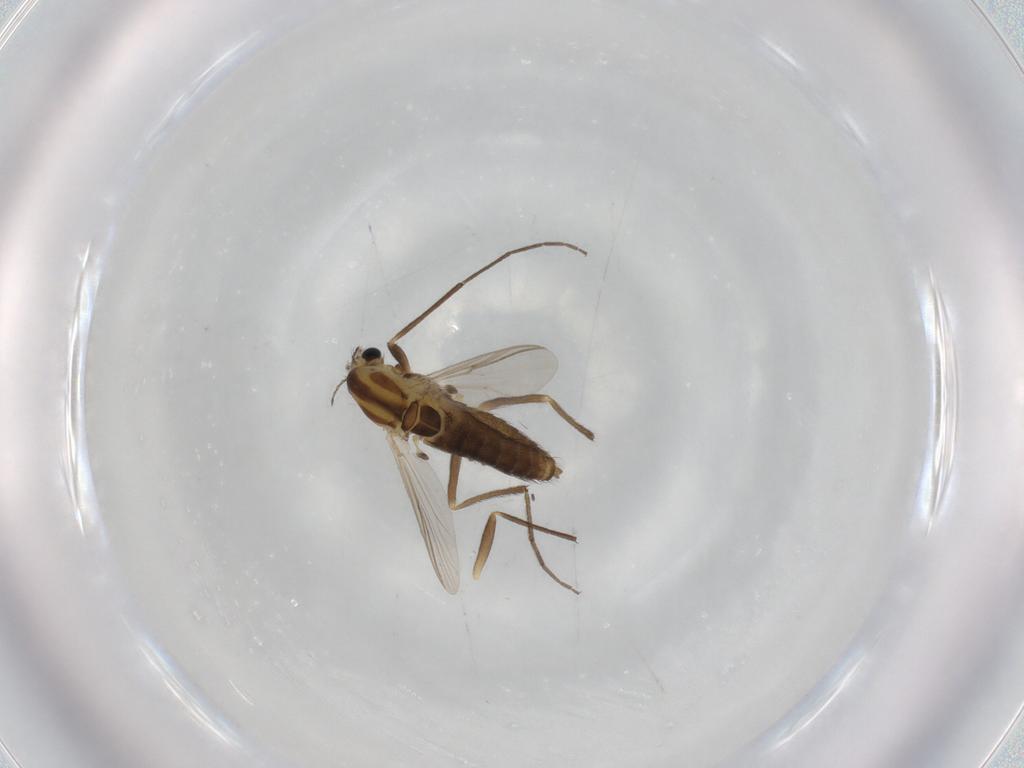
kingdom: Animalia
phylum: Arthropoda
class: Insecta
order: Diptera
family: Chironomidae
